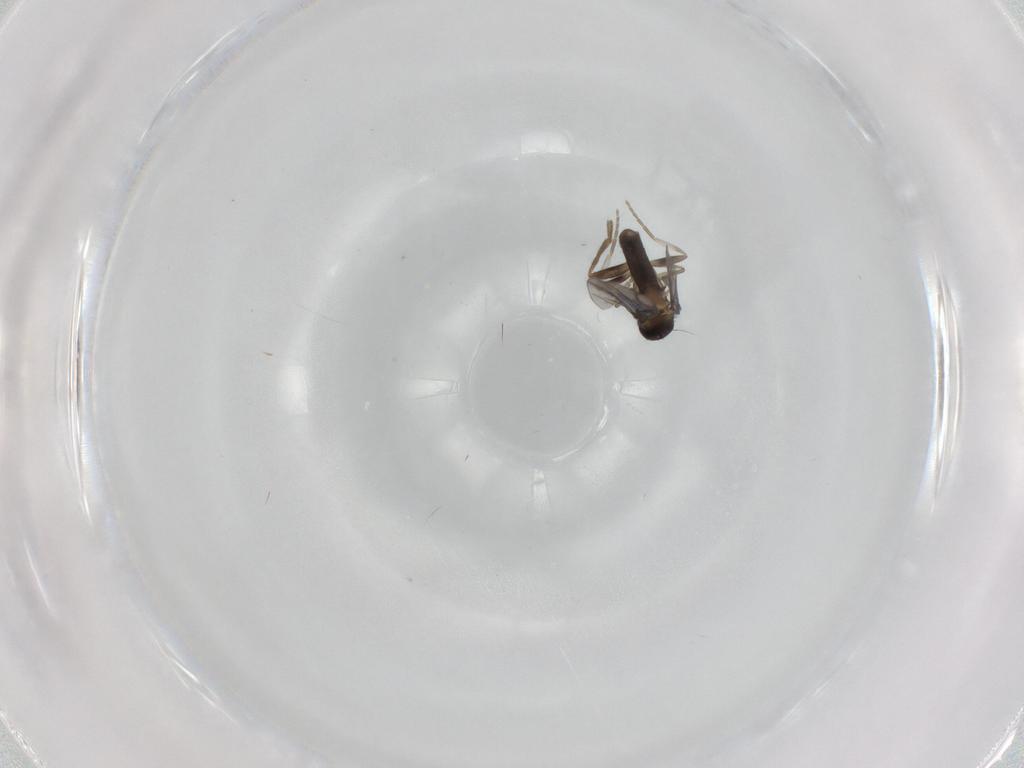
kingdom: Animalia
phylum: Arthropoda
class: Insecta
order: Diptera
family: Phoridae
